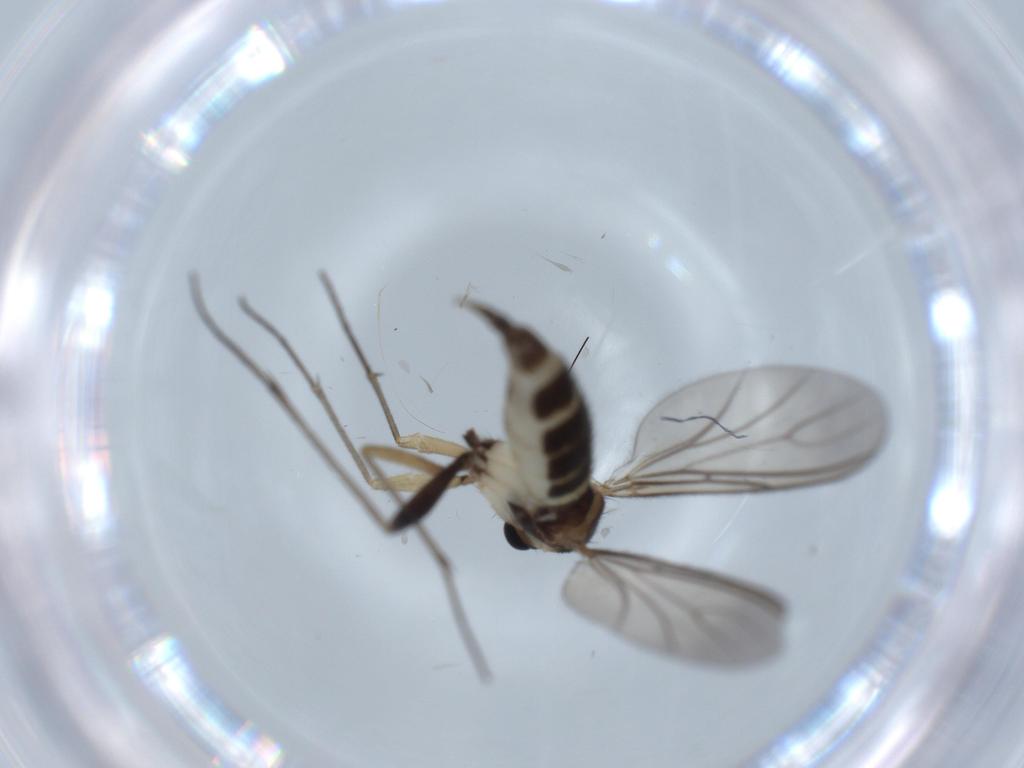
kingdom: Animalia
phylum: Arthropoda
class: Insecta
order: Diptera
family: Sciaridae
